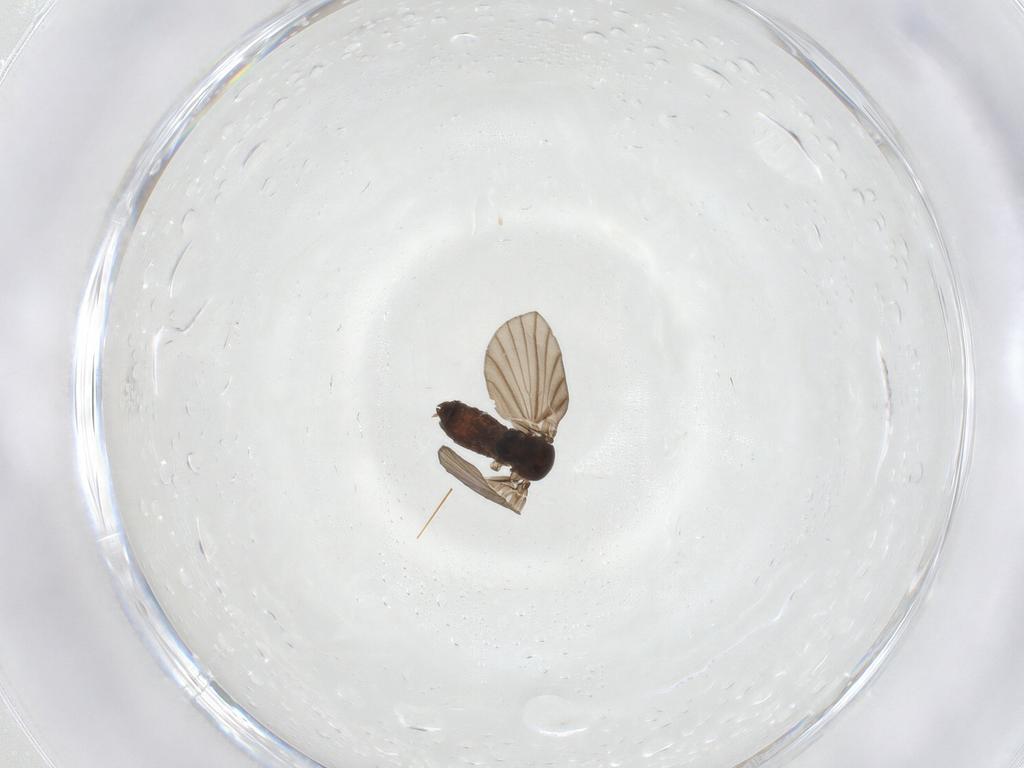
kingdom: Animalia
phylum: Arthropoda
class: Insecta
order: Diptera
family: Psychodidae
